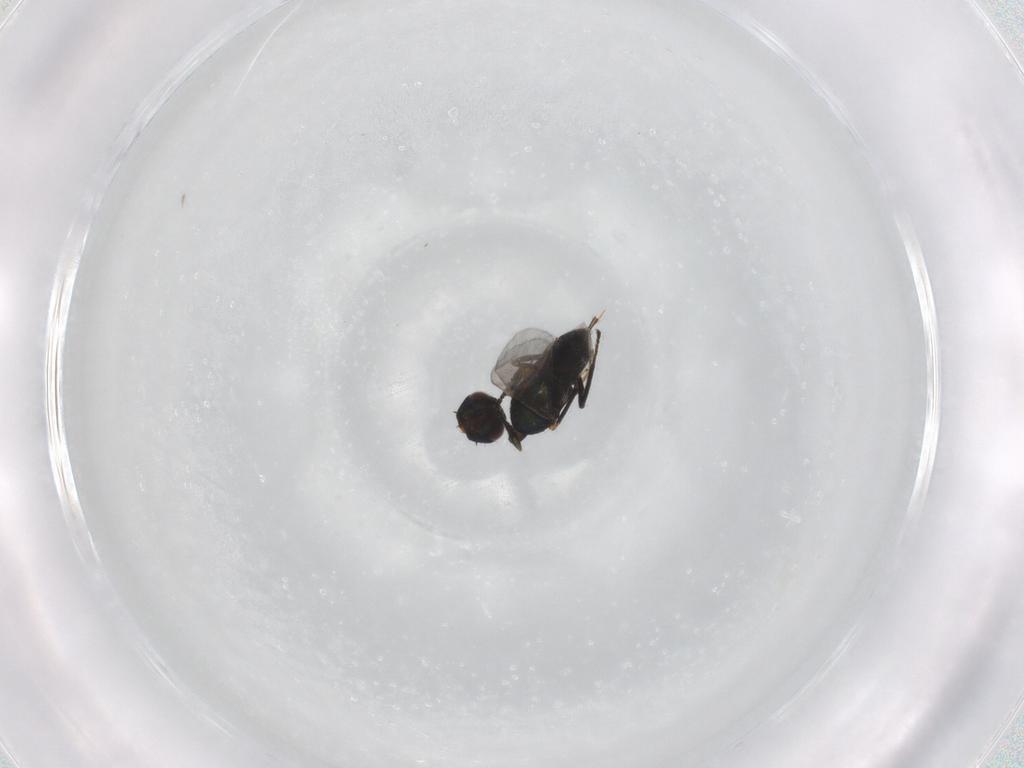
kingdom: Animalia
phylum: Arthropoda
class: Insecta
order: Hymenoptera
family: Encyrtidae
